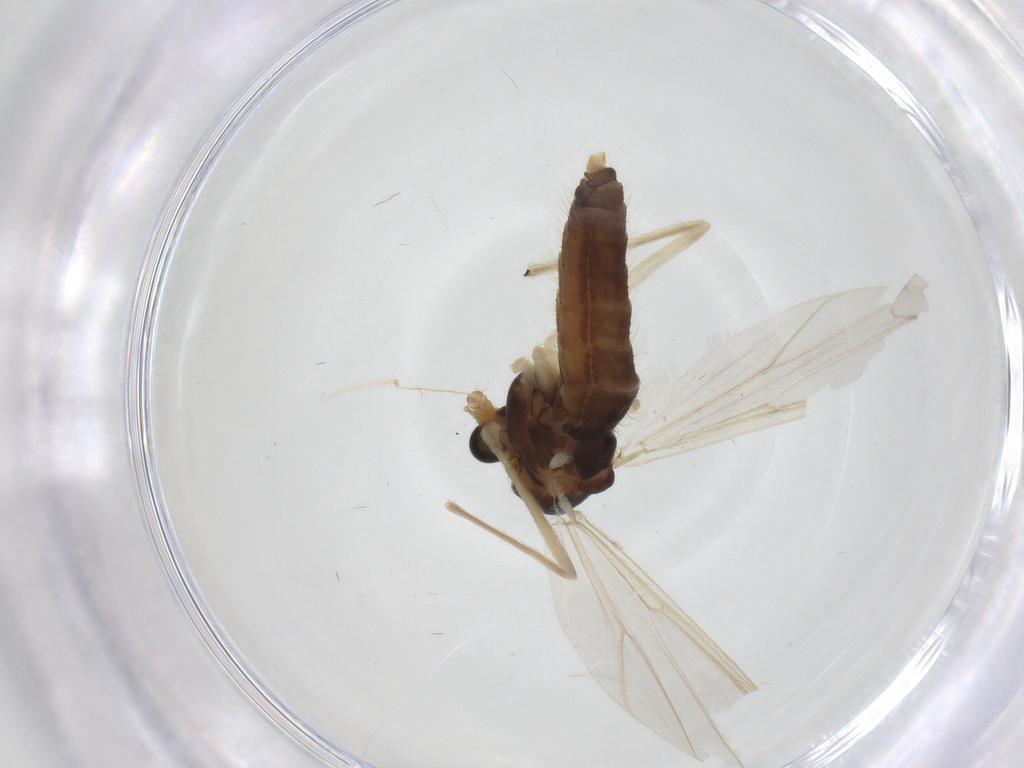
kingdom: Animalia
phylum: Arthropoda
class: Insecta
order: Diptera
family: Chironomidae
